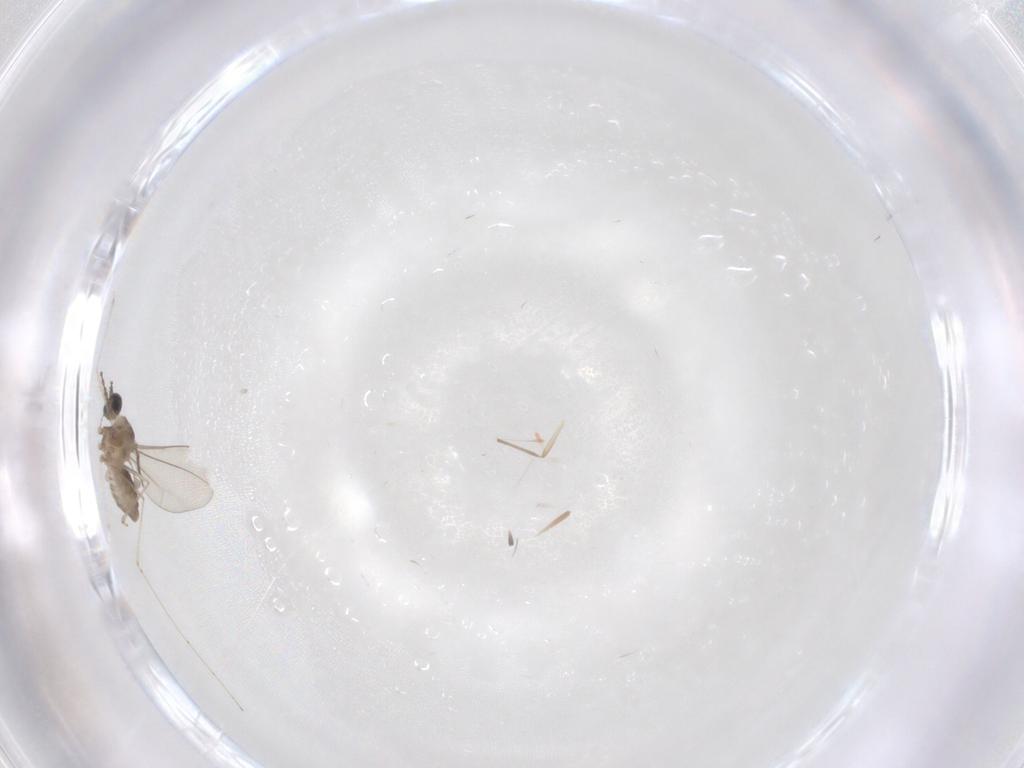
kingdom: Animalia
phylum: Arthropoda
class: Insecta
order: Diptera
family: Cecidomyiidae
